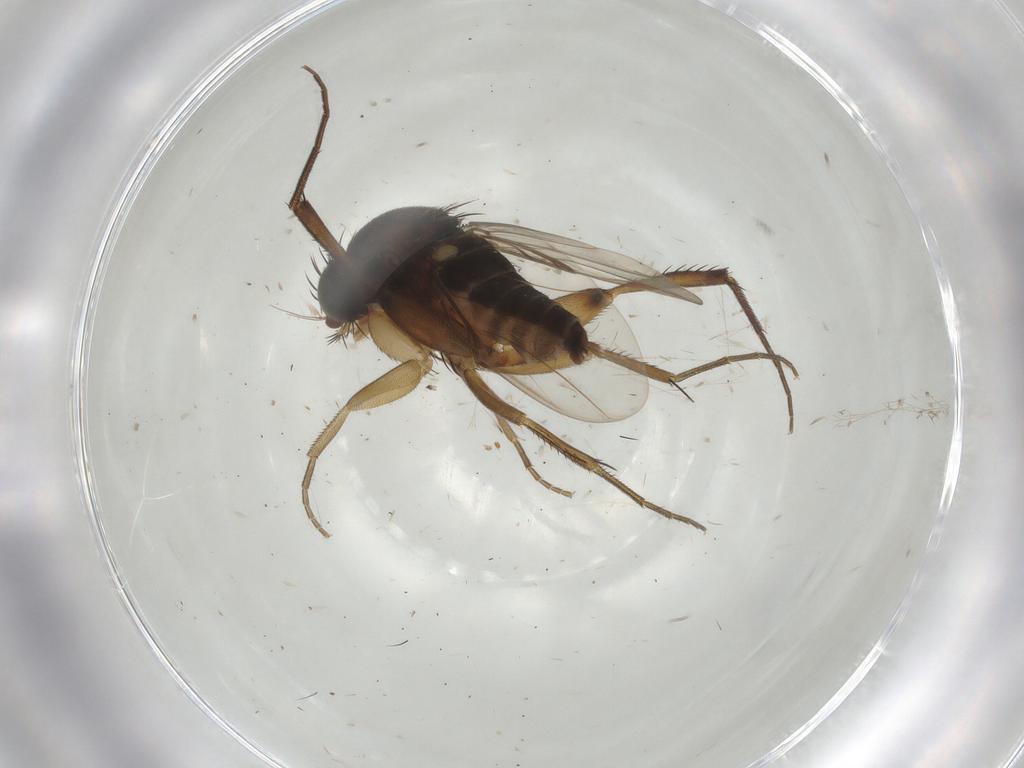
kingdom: Animalia
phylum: Arthropoda
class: Insecta
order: Diptera
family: Phoridae
